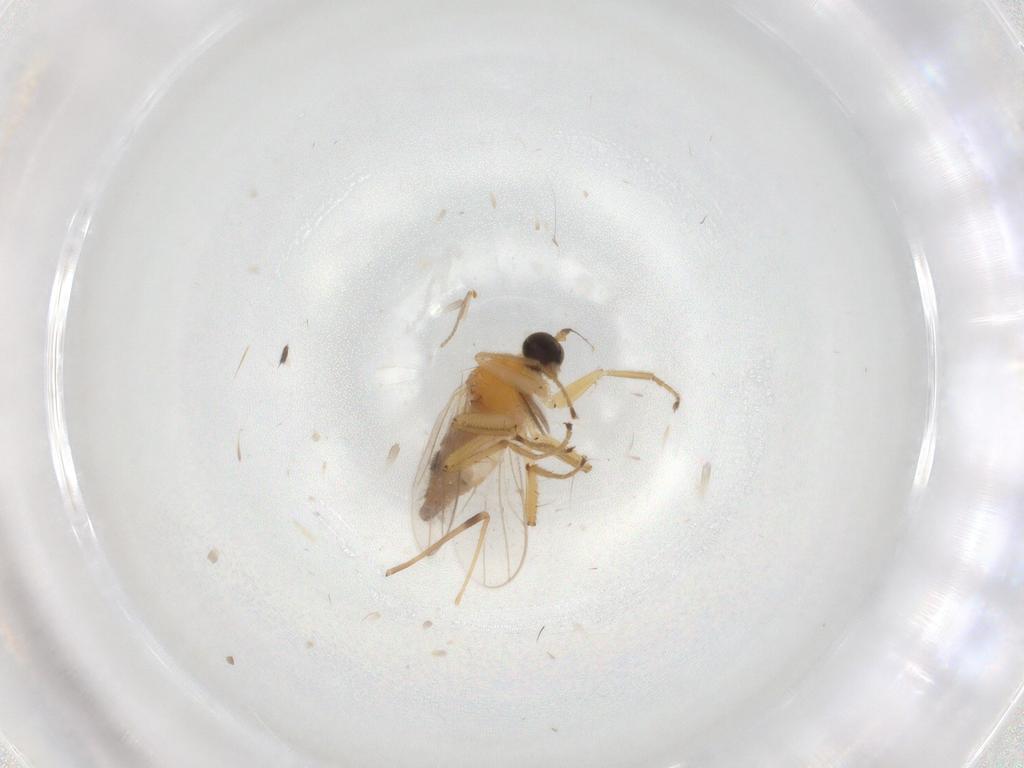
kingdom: Animalia
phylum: Arthropoda
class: Insecta
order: Diptera
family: Hybotidae
